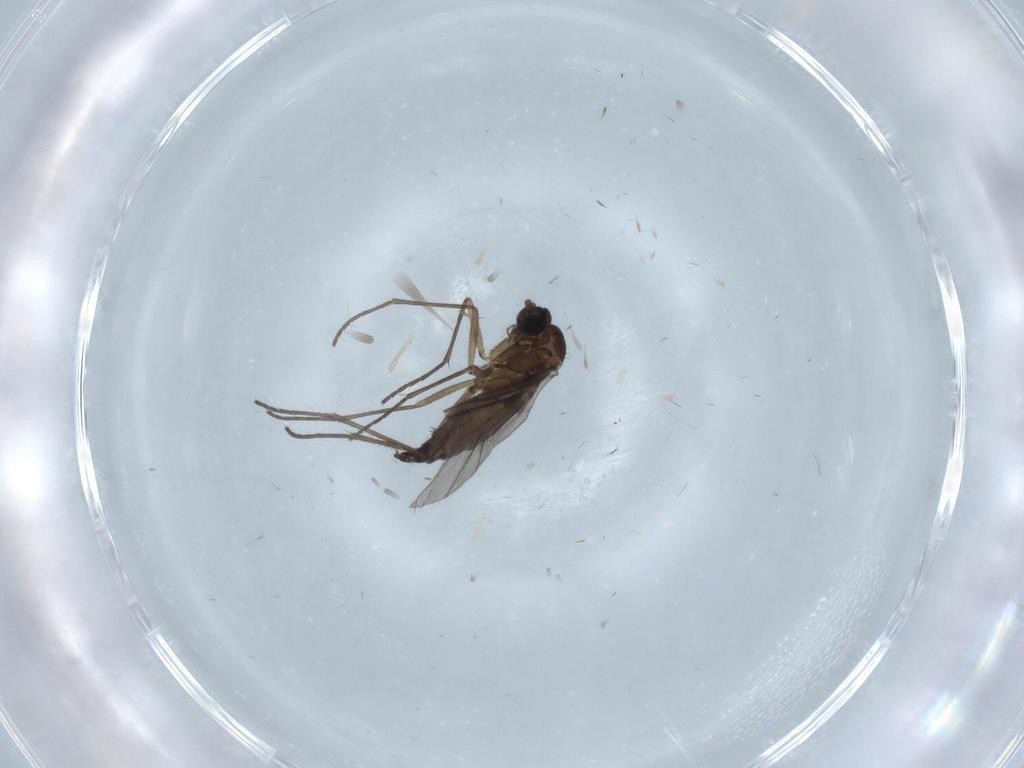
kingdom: Animalia
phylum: Arthropoda
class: Insecta
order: Diptera
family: Sciaridae
